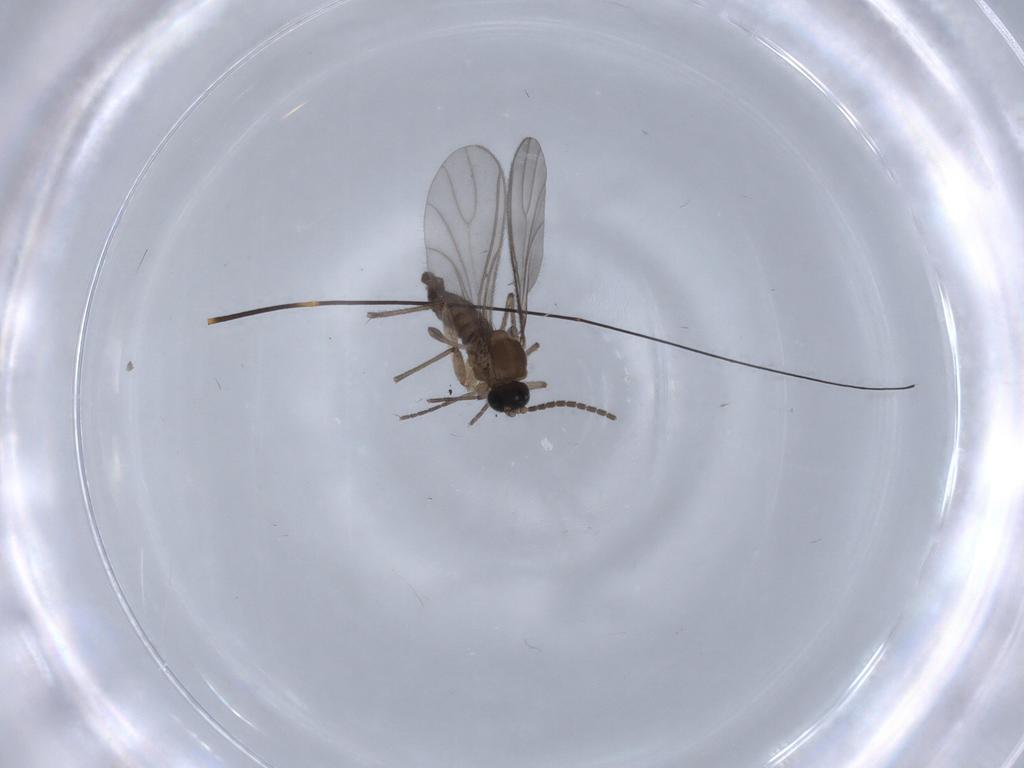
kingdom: Animalia
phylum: Arthropoda
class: Insecta
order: Diptera
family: Sciaridae
